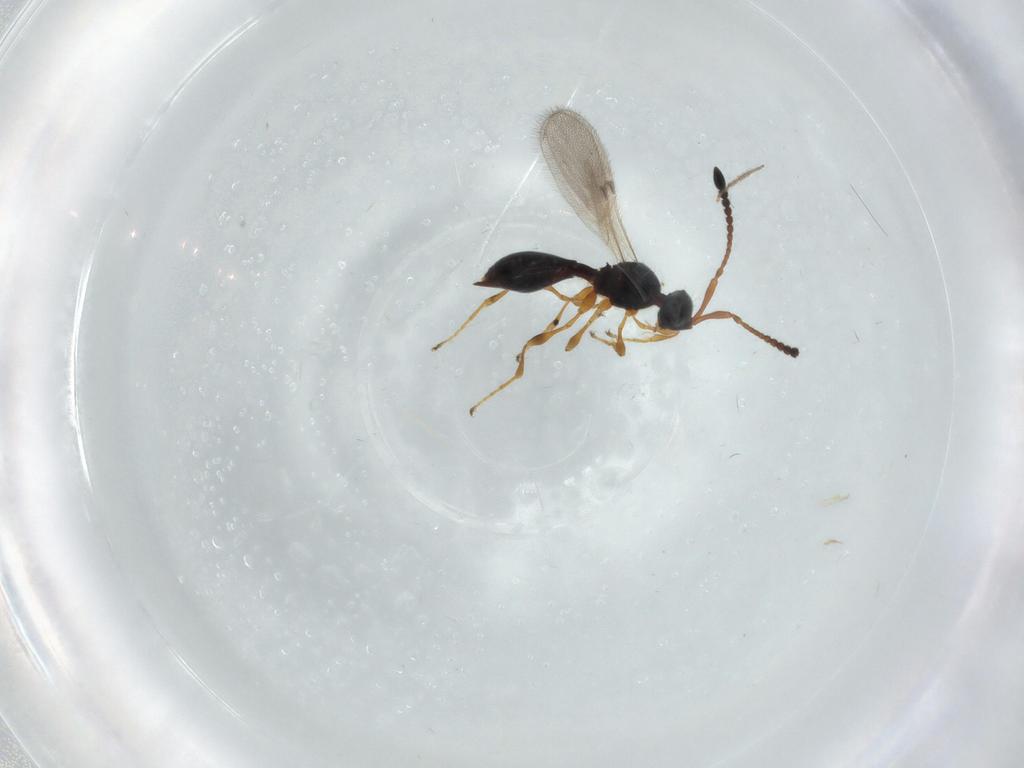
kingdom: Animalia
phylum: Arthropoda
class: Insecta
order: Hymenoptera
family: Diapriidae
